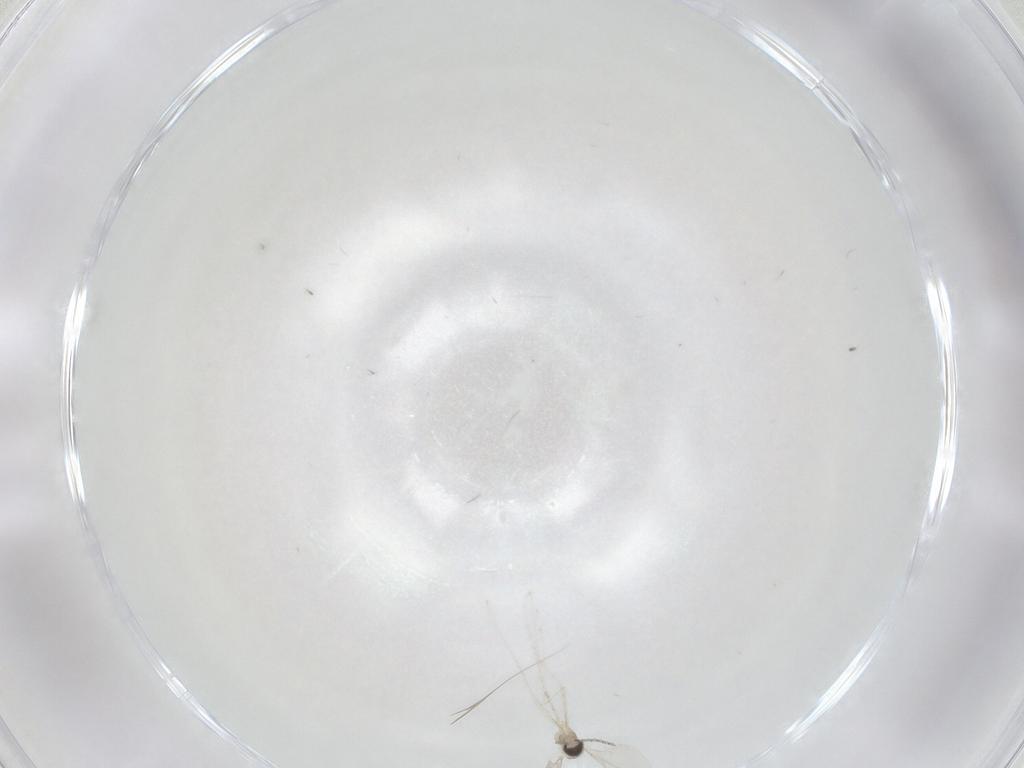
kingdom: Animalia
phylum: Arthropoda
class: Insecta
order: Diptera
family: Cecidomyiidae
